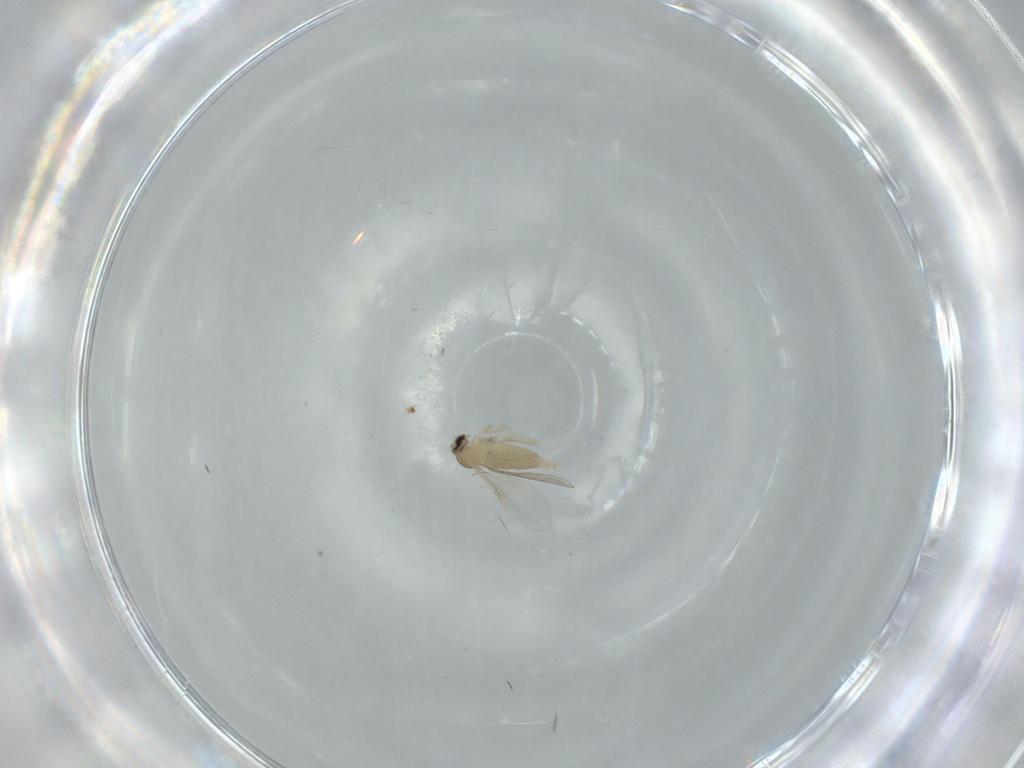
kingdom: Animalia
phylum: Arthropoda
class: Insecta
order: Diptera
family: Cecidomyiidae
